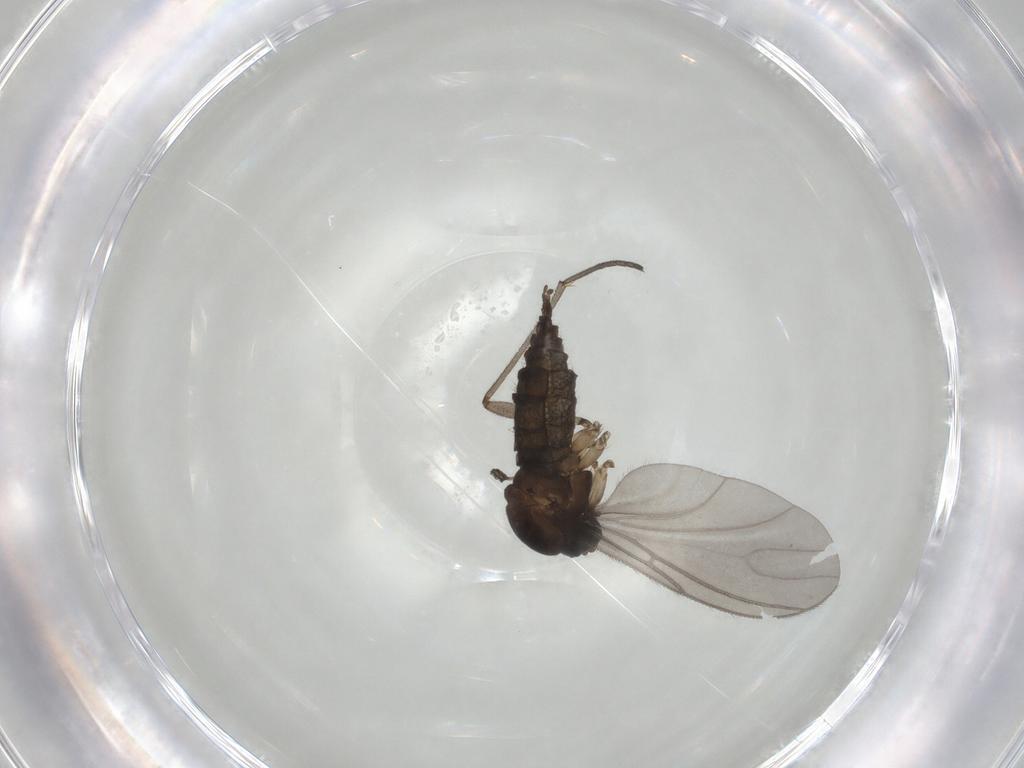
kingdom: Animalia
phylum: Arthropoda
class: Insecta
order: Diptera
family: Sciaridae
